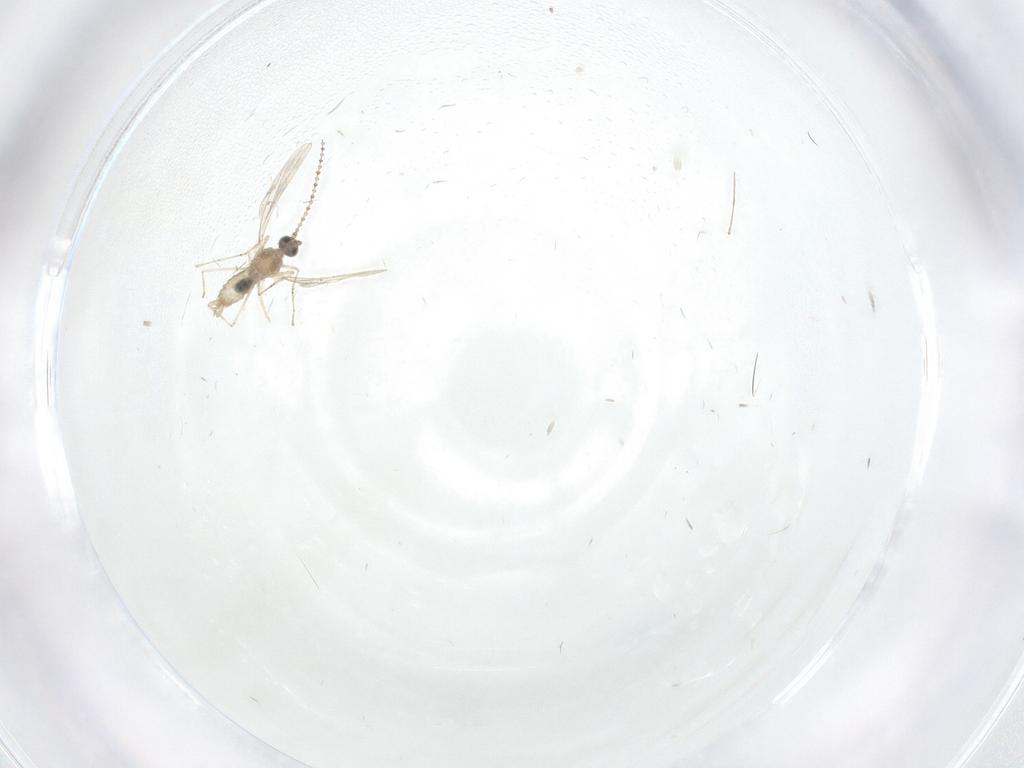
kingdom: Animalia
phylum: Arthropoda
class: Insecta
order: Diptera
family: Cecidomyiidae
